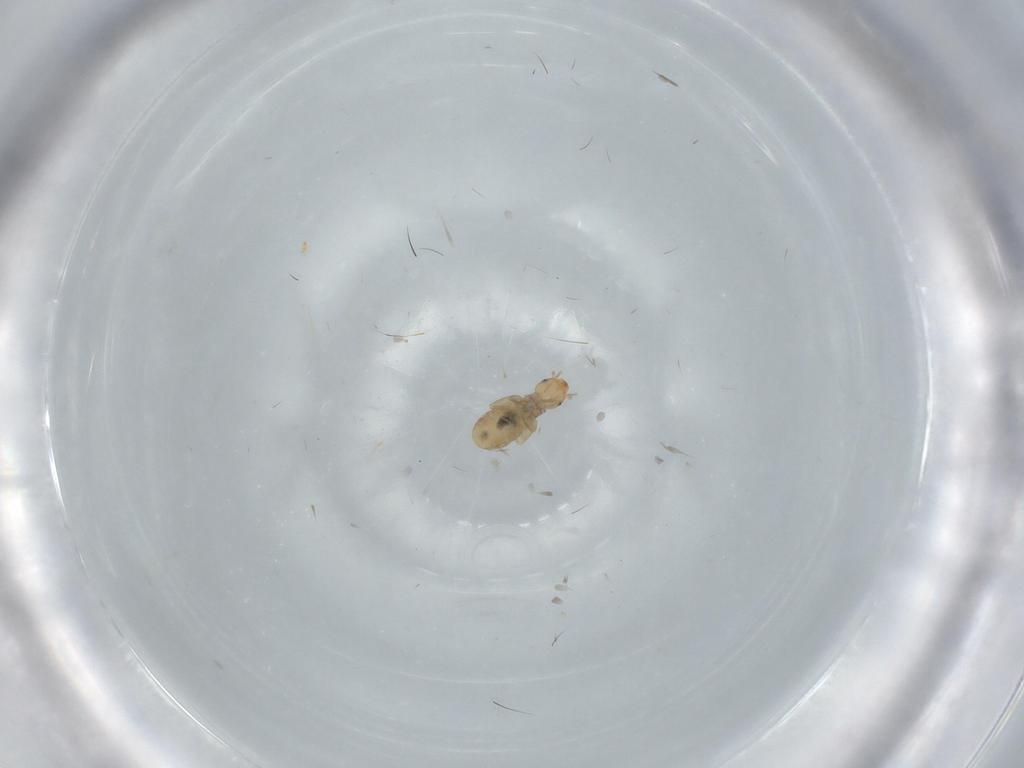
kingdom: Animalia
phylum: Arthropoda
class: Insecta
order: Psocodea
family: Liposcelididae
